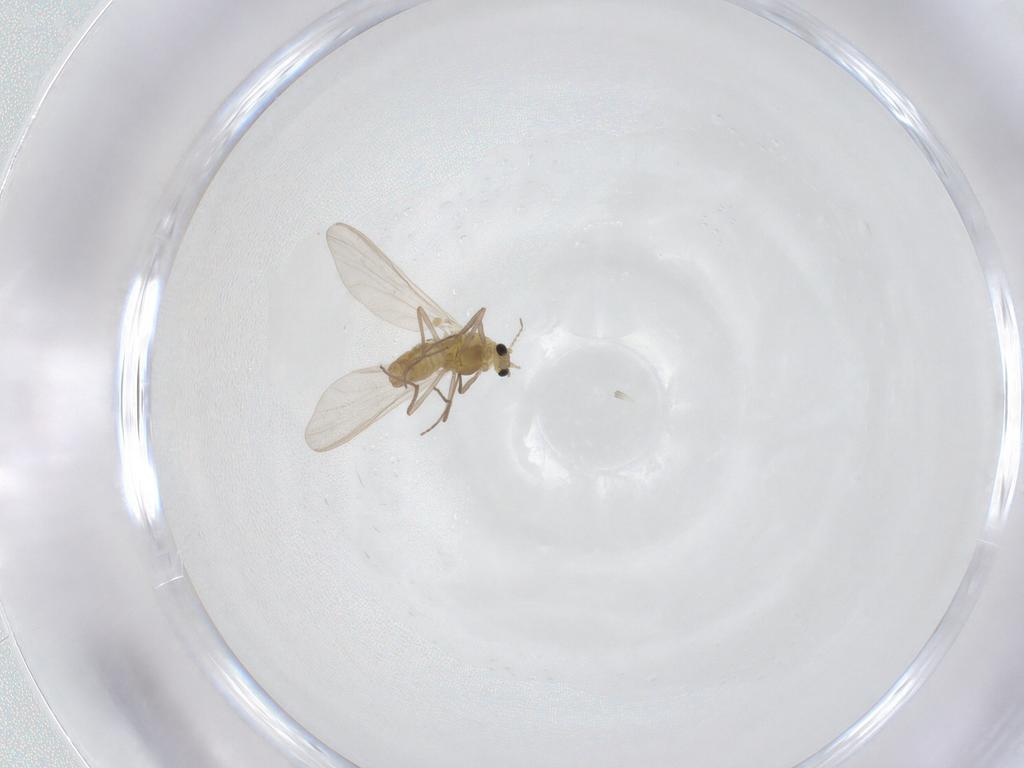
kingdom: Animalia
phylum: Arthropoda
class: Insecta
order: Diptera
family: Chironomidae
